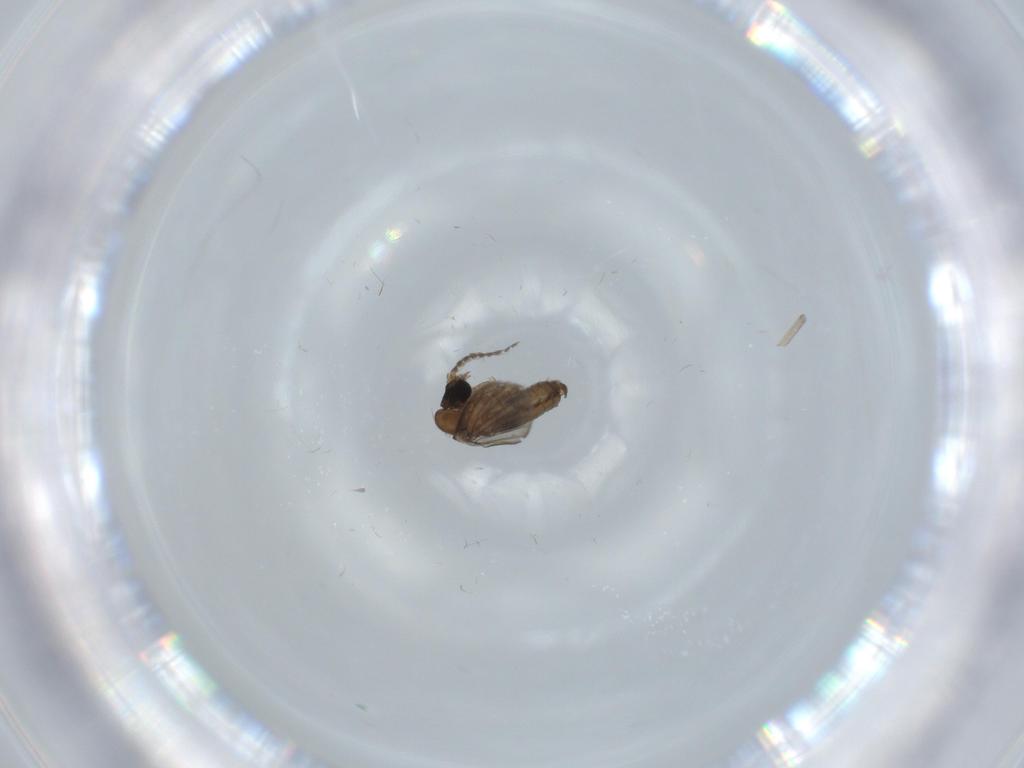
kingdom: Animalia
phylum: Arthropoda
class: Insecta
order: Diptera
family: Psychodidae
